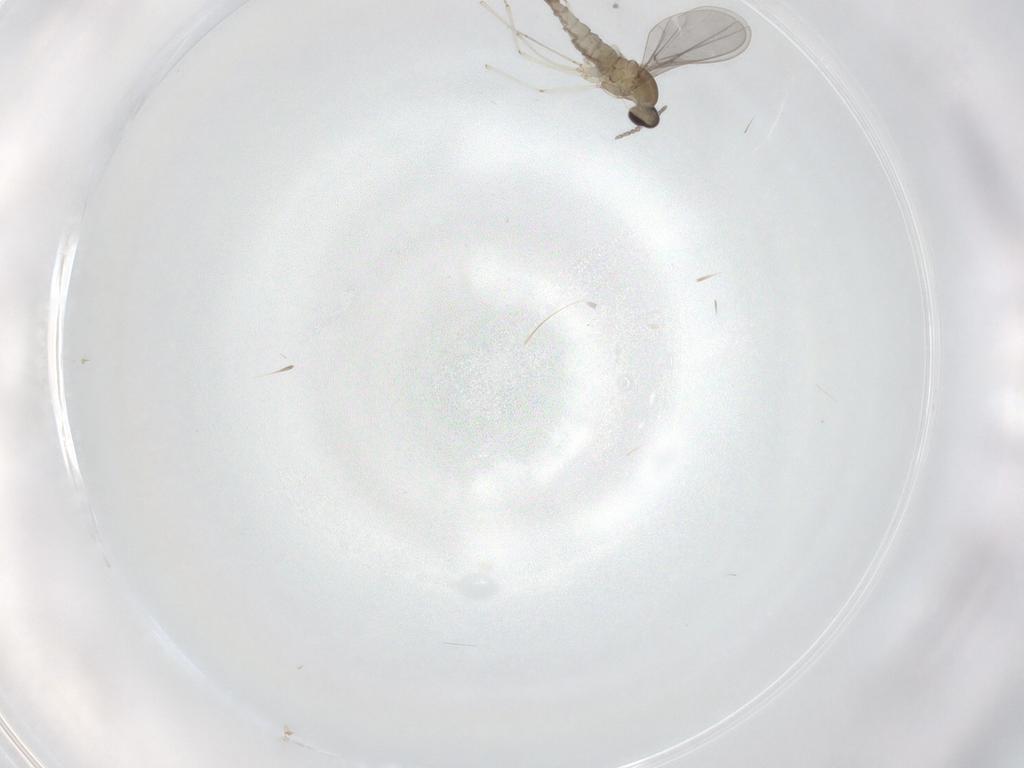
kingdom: Animalia
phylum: Arthropoda
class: Insecta
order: Diptera
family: Cecidomyiidae
